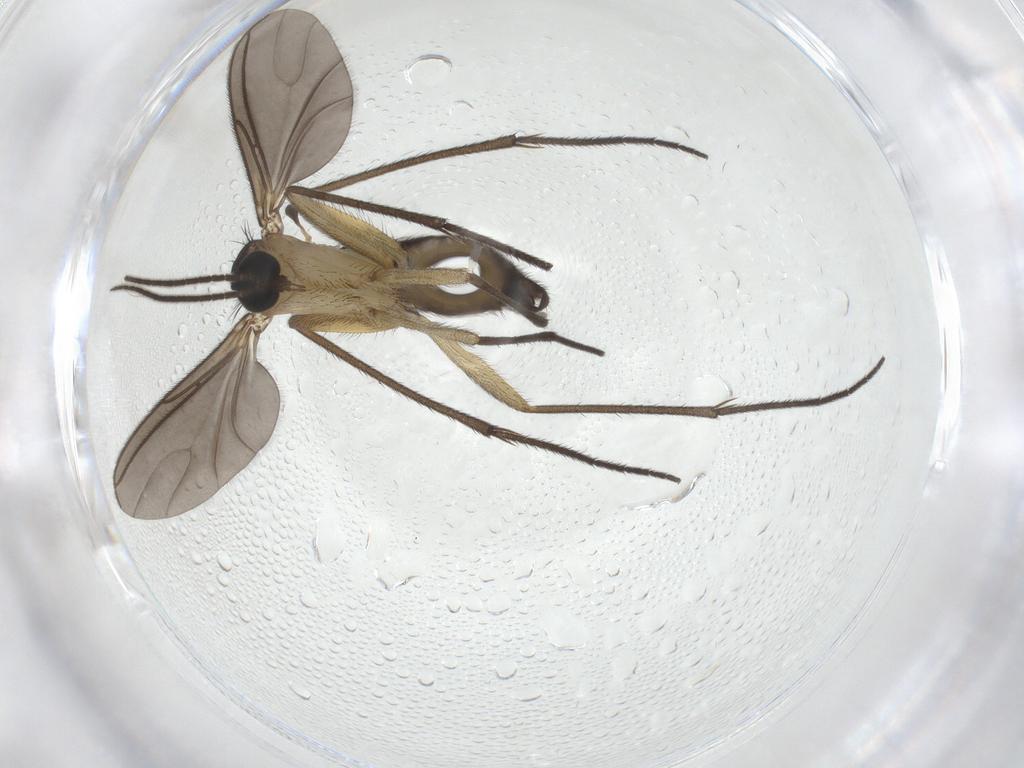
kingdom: Animalia
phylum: Arthropoda
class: Insecta
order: Diptera
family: Sciaridae
